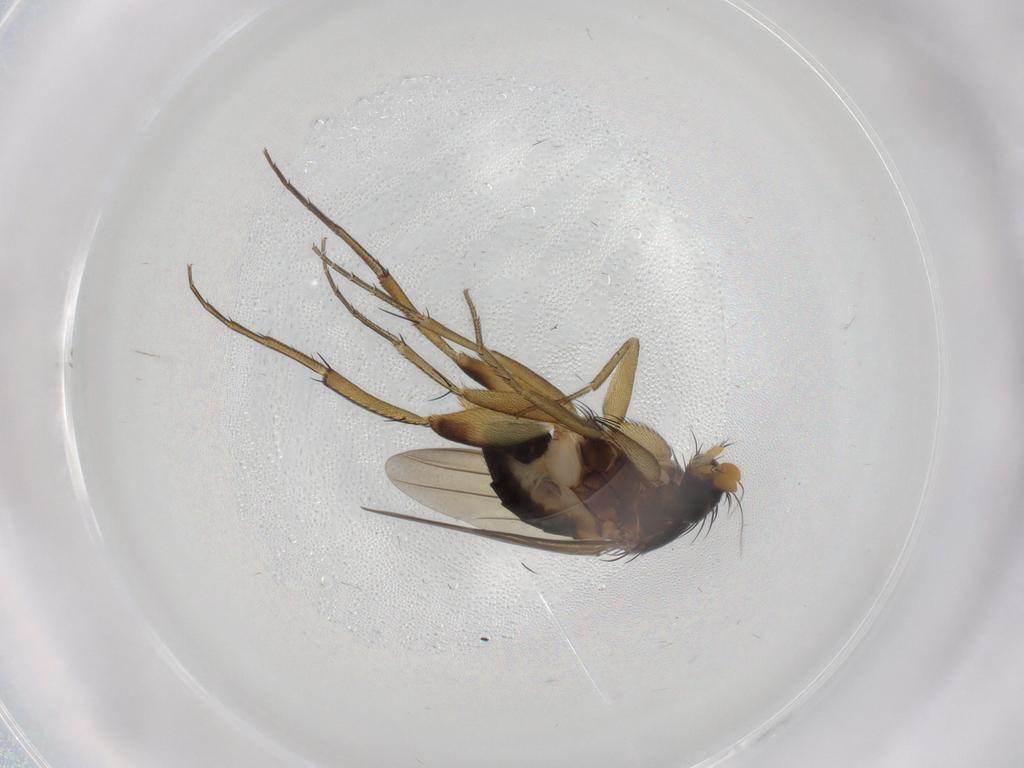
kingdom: Animalia
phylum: Arthropoda
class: Insecta
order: Diptera
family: Phoridae
